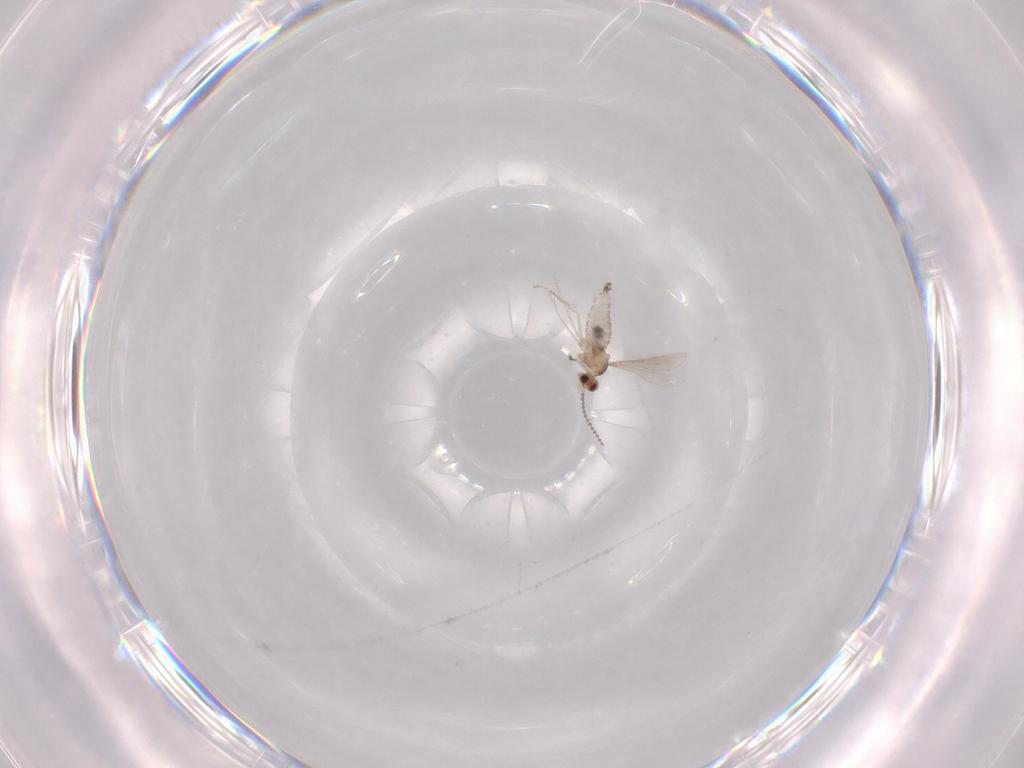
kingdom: Animalia
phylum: Arthropoda
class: Insecta
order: Diptera
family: Cecidomyiidae
